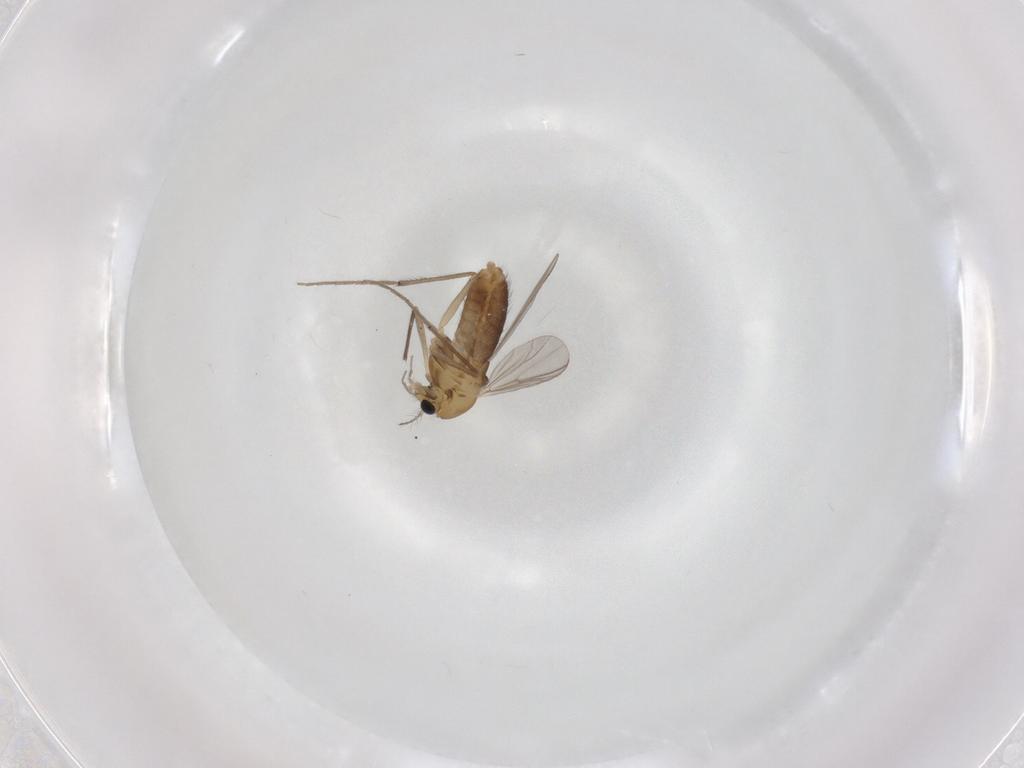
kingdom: Animalia
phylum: Arthropoda
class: Insecta
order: Diptera
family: Chironomidae
